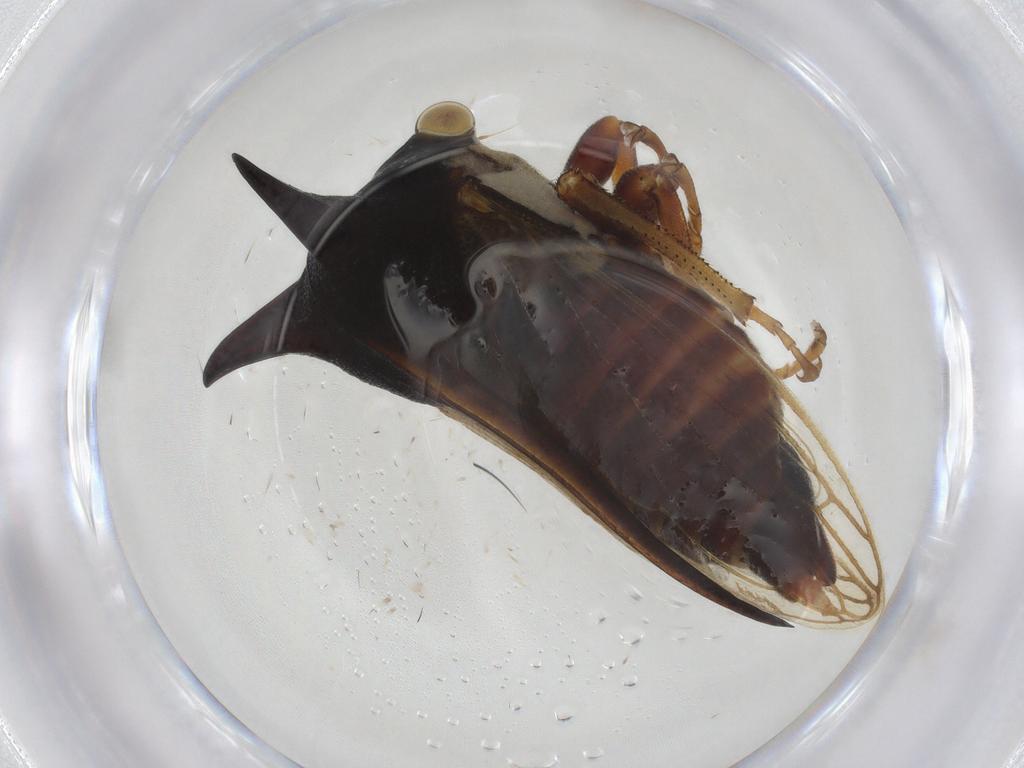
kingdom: Animalia
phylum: Arthropoda
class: Insecta
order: Hemiptera
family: Membracidae
